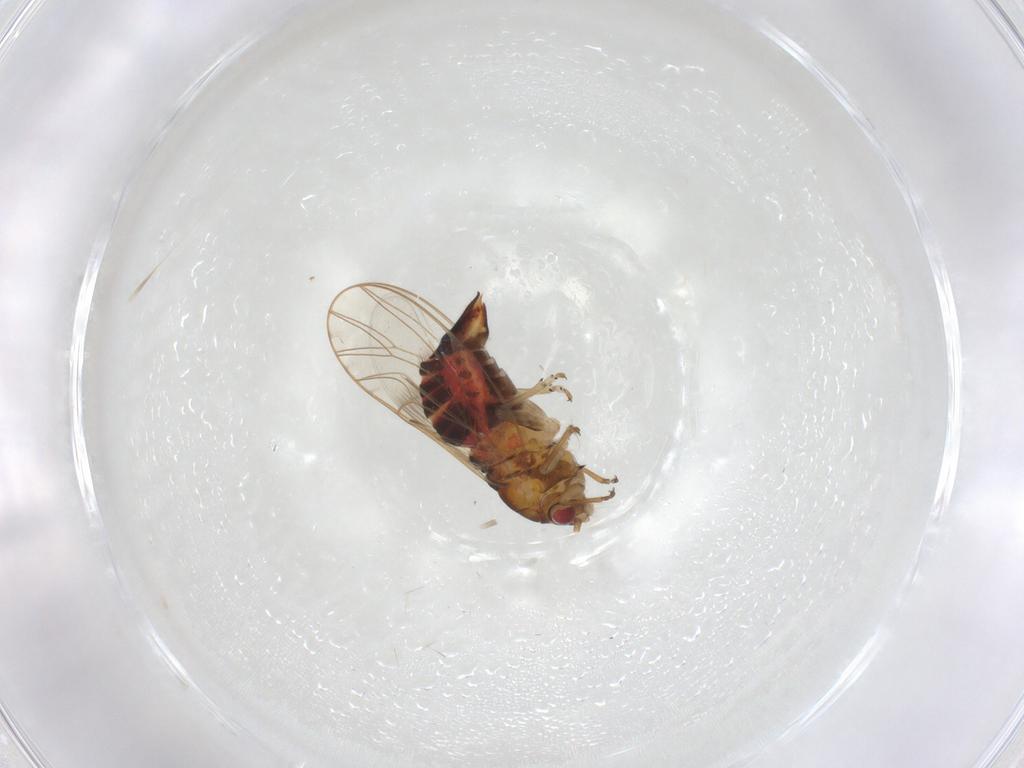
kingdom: Animalia
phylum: Arthropoda
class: Insecta
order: Hemiptera
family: Psyllidae
